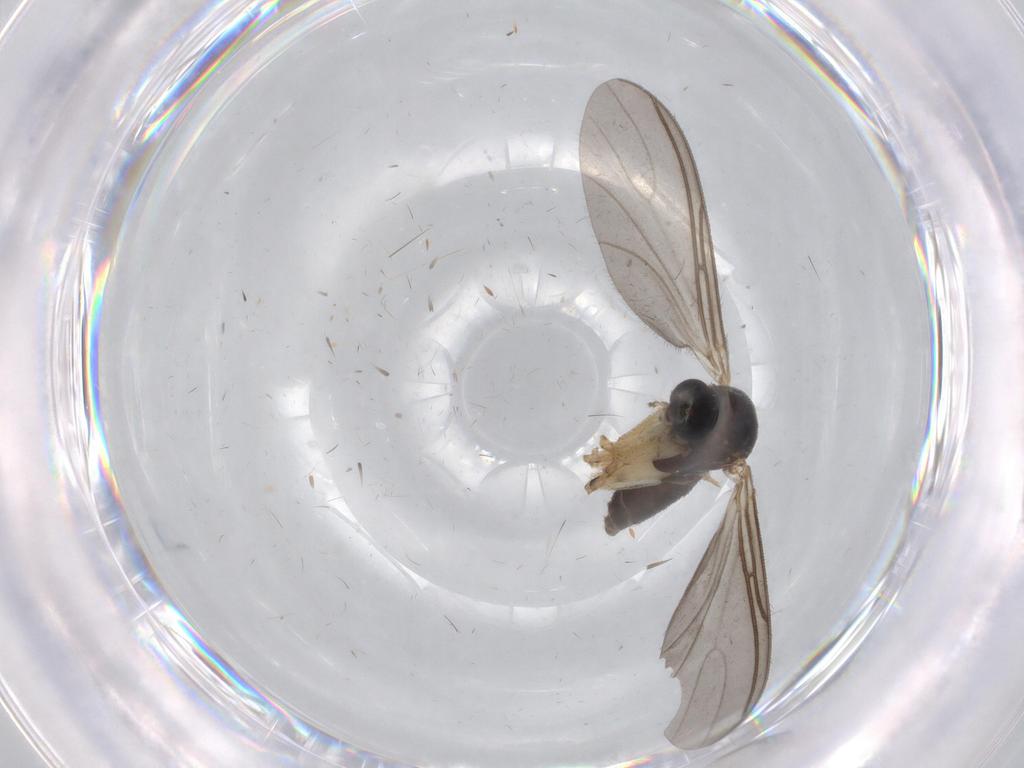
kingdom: Animalia
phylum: Arthropoda
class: Insecta
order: Diptera
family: Sciaridae
